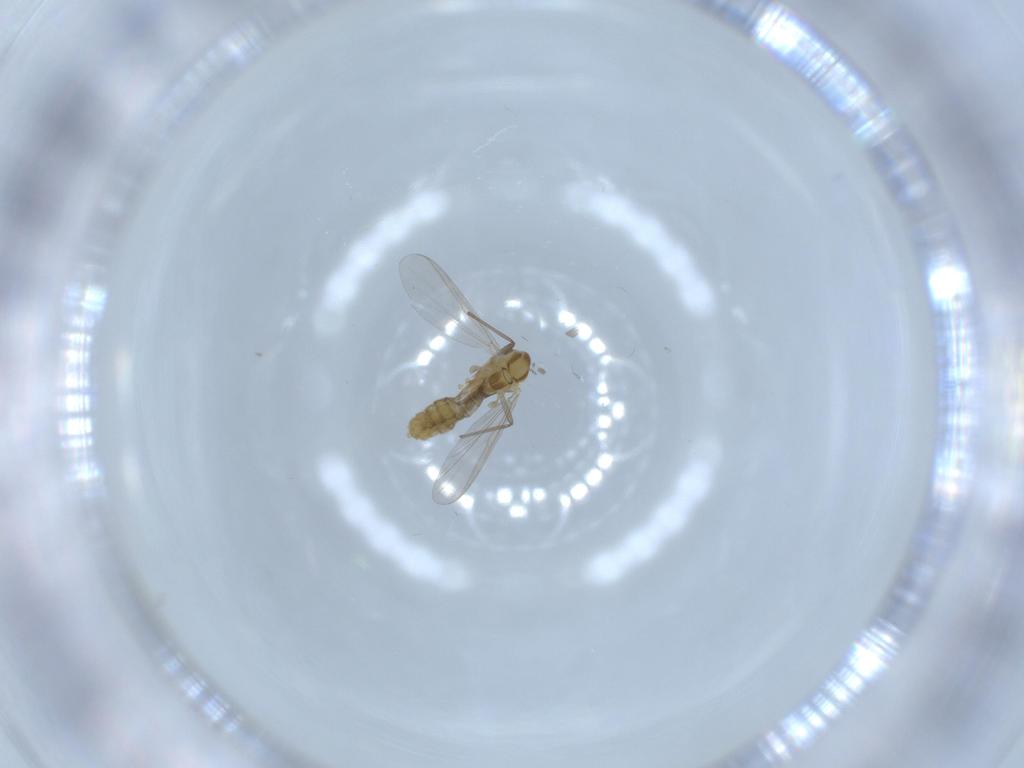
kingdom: Animalia
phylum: Arthropoda
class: Insecta
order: Diptera
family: Chironomidae
